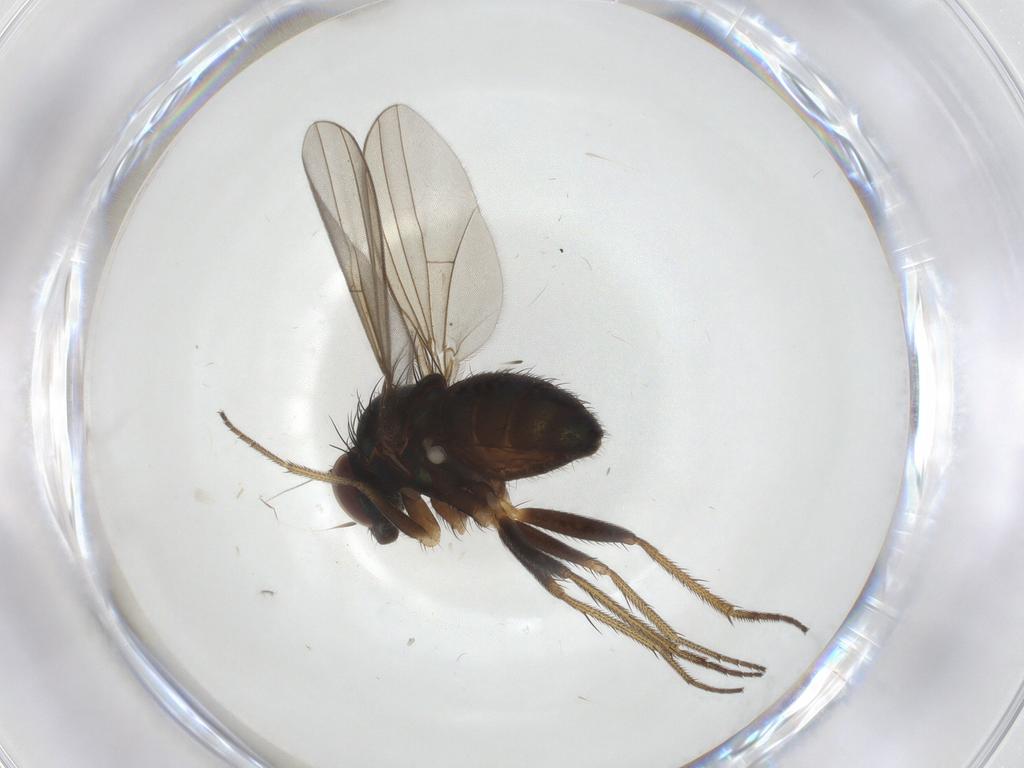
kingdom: Animalia
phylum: Arthropoda
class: Insecta
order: Diptera
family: Dolichopodidae
